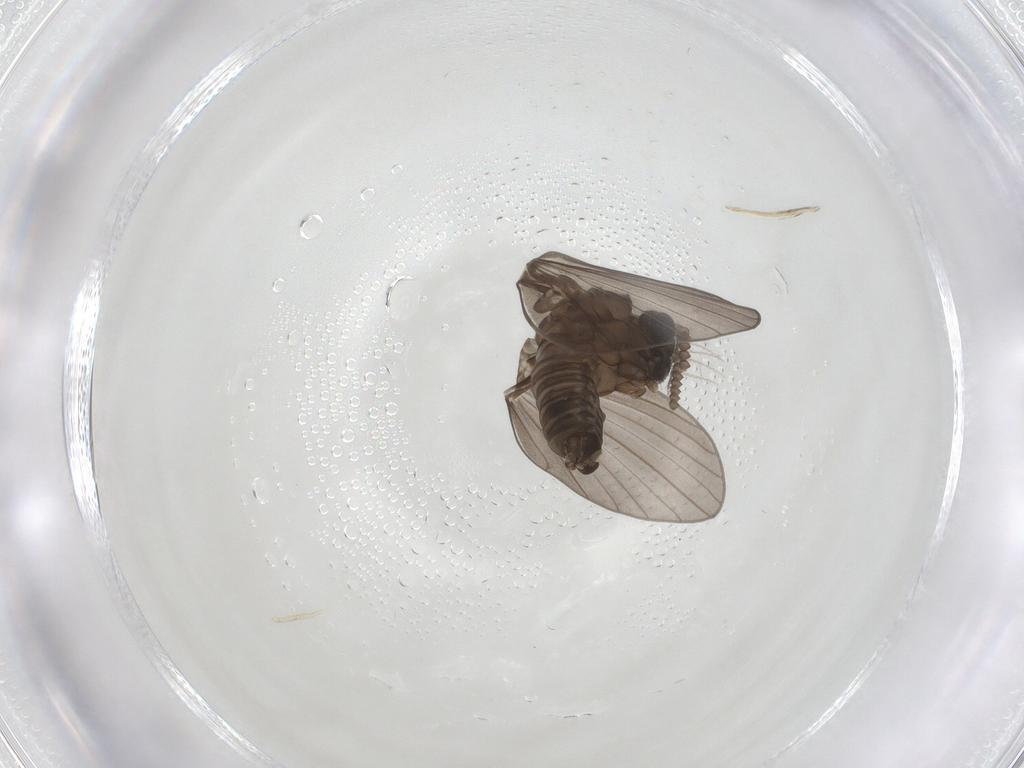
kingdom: Animalia
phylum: Arthropoda
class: Insecta
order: Diptera
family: Sciaridae
